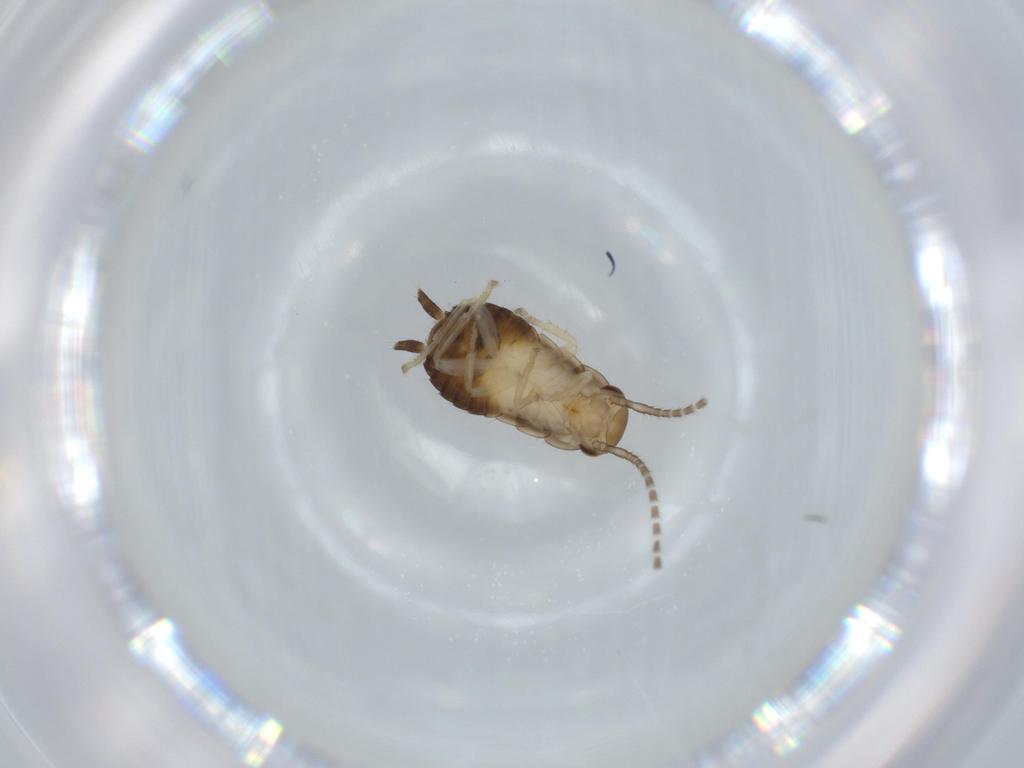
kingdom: Animalia
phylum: Arthropoda
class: Insecta
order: Blattodea
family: Ectobiidae
